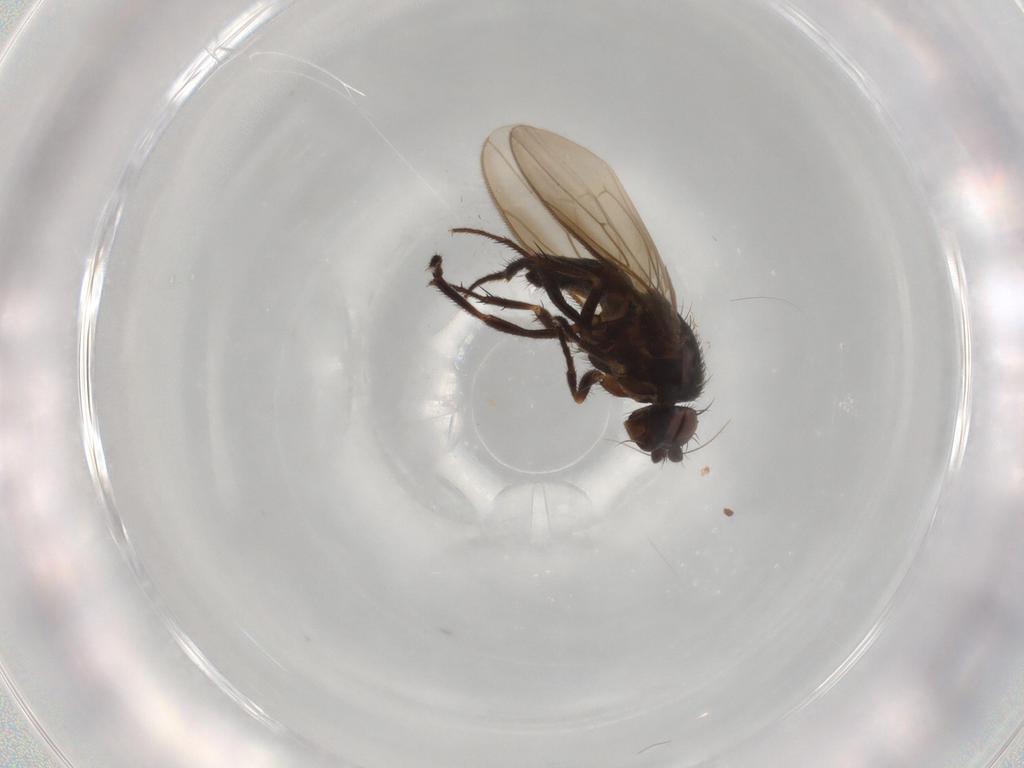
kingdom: Animalia
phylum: Arthropoda
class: Insecta
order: Diptera
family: Sphaeroceridae
